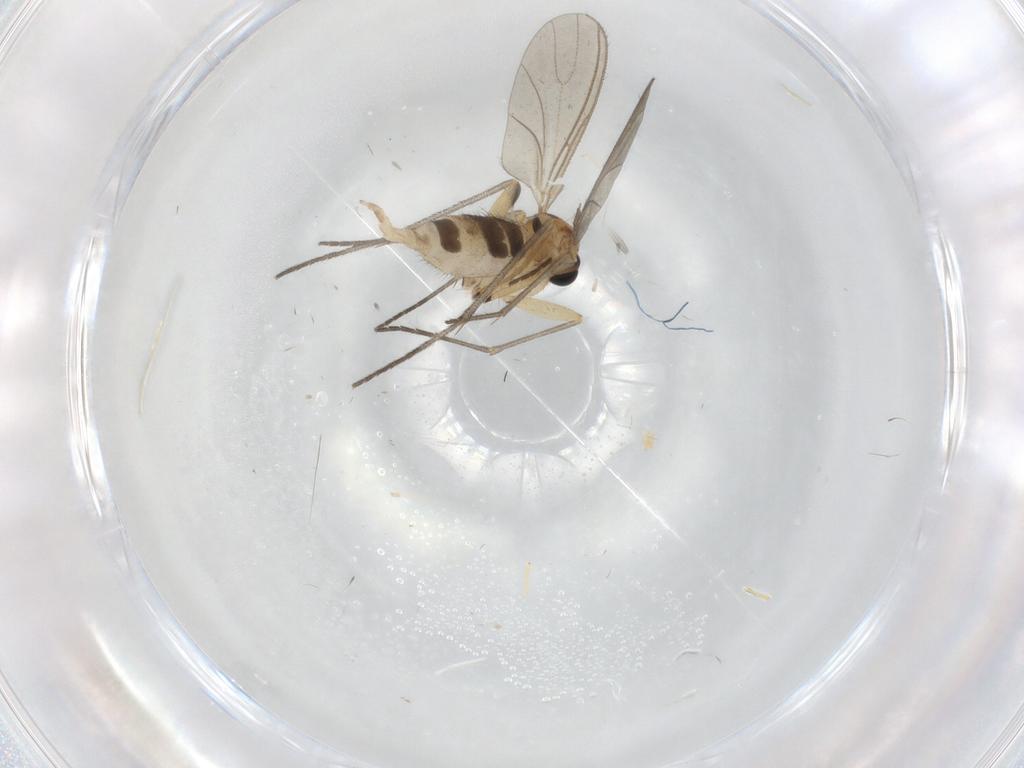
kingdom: Animalia
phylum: Arthropoda
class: Insecta
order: Diptera
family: Sciaridae
